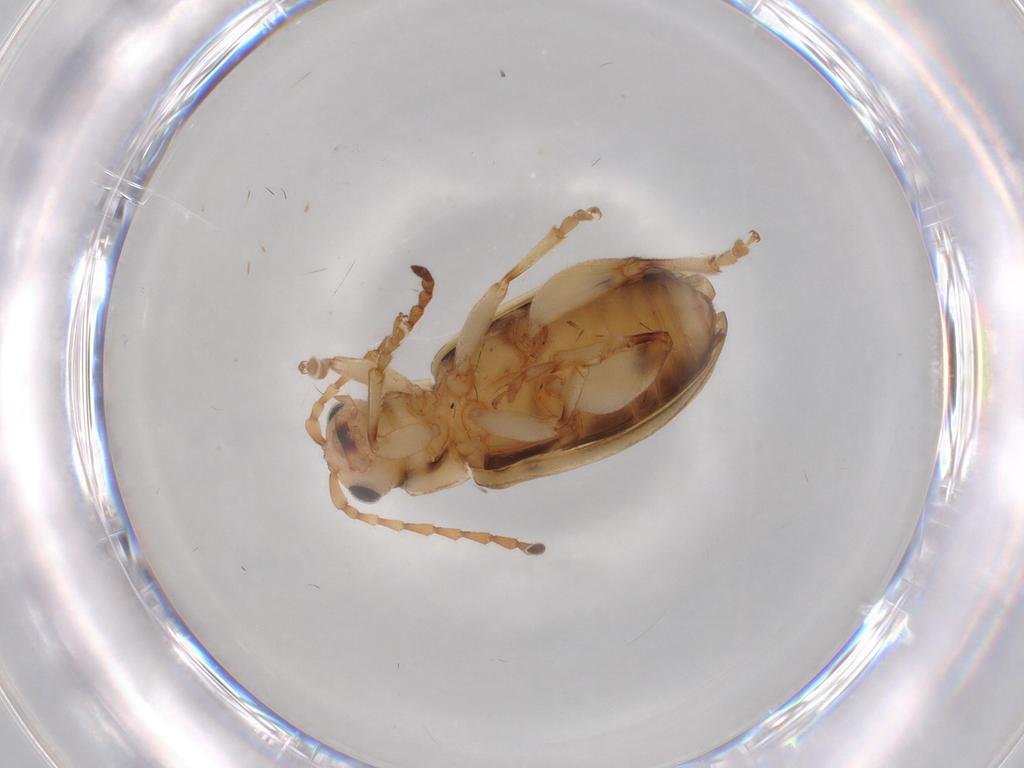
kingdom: Animalia
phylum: Arthropoda
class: Insecta
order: Coleoptera
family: Chrysomelidae
